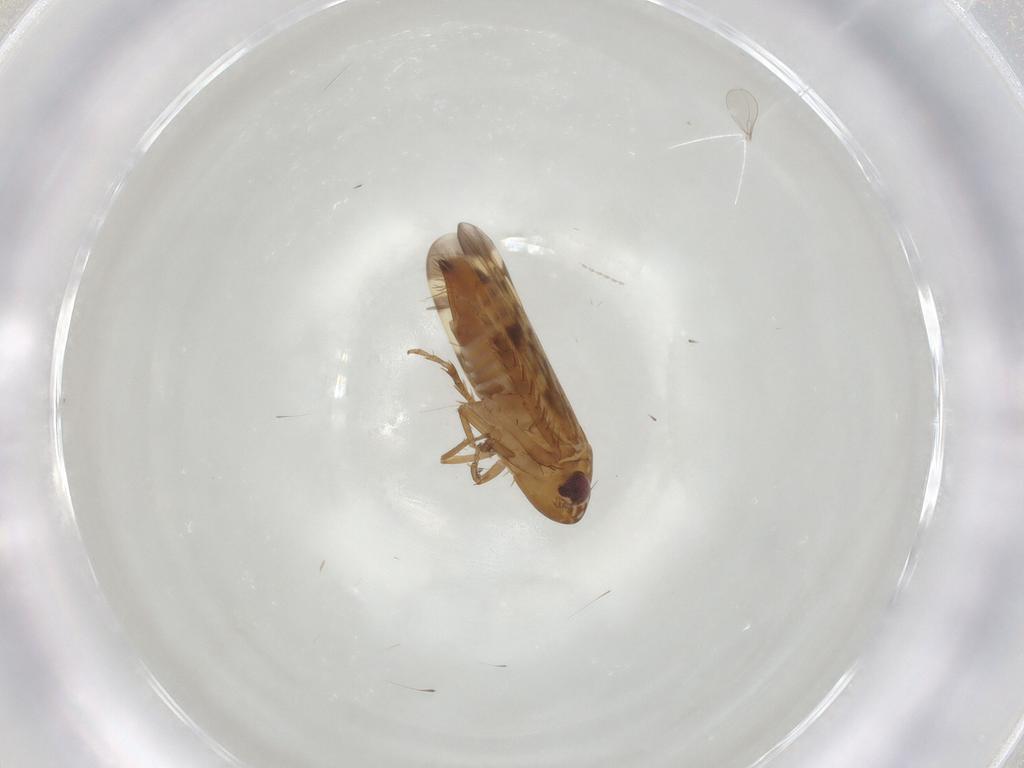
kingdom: Animalia
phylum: Arthropoda
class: Insecta
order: Hemiptera
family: Cicadellidae
